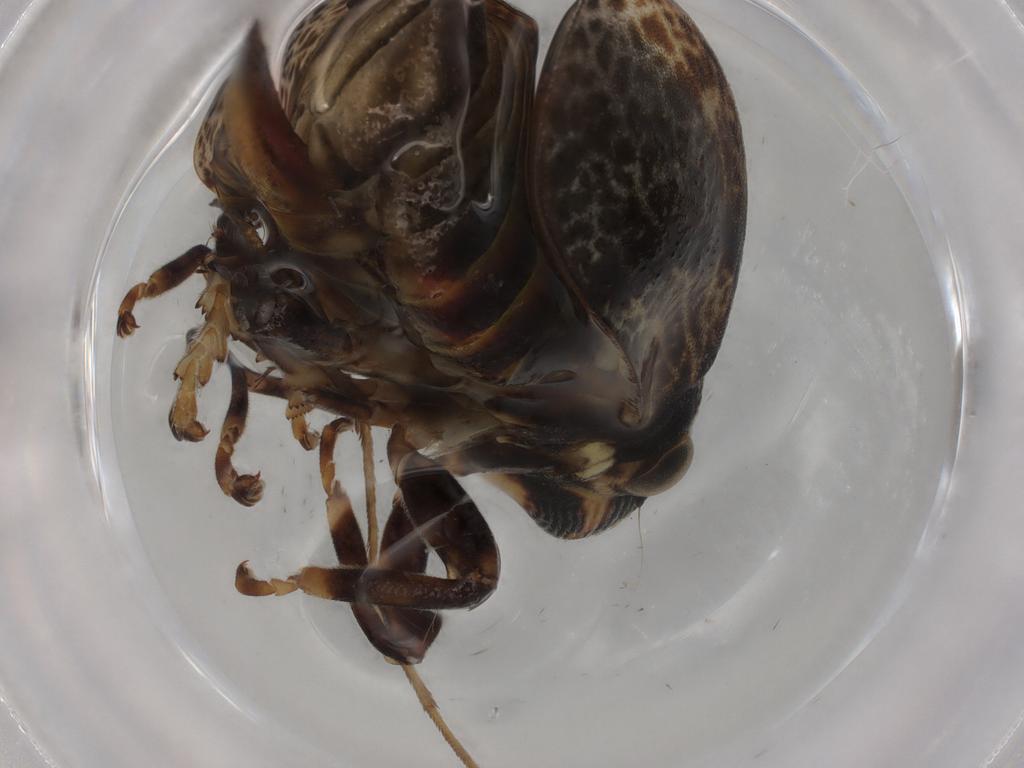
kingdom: Animalia
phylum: Arthropoda
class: Insecta
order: Hemiptera
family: Aphrophoridae
